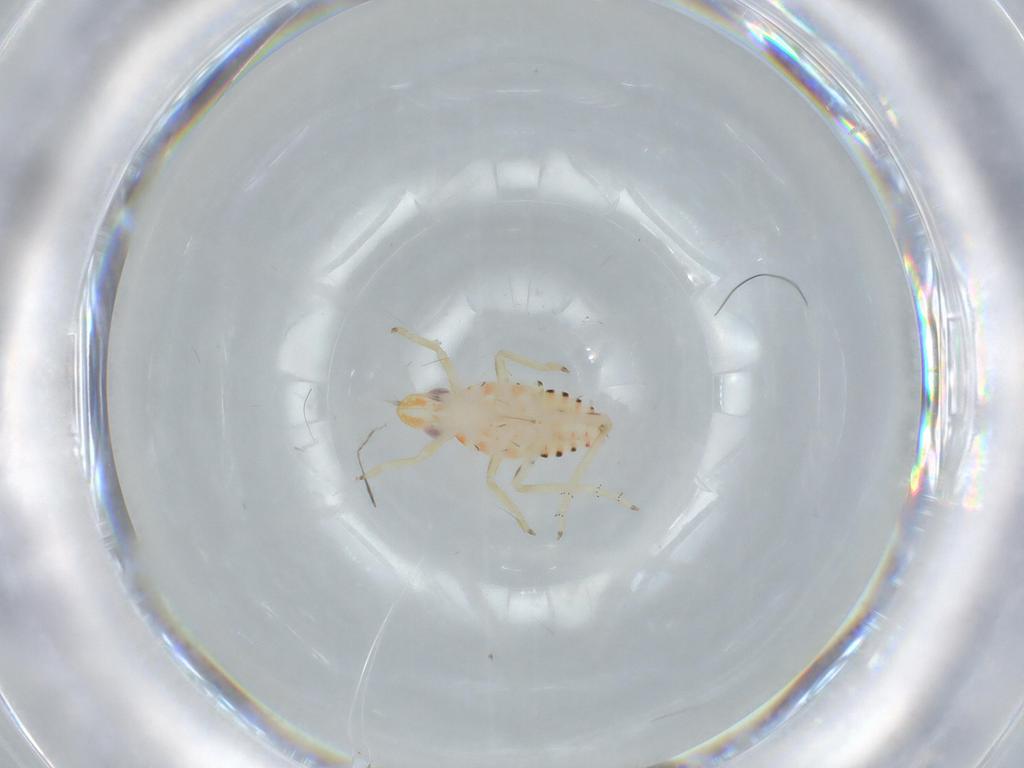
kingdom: Animalia
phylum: Arthropoda
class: Insecta
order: Hemiptera
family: Tropiduchidae
